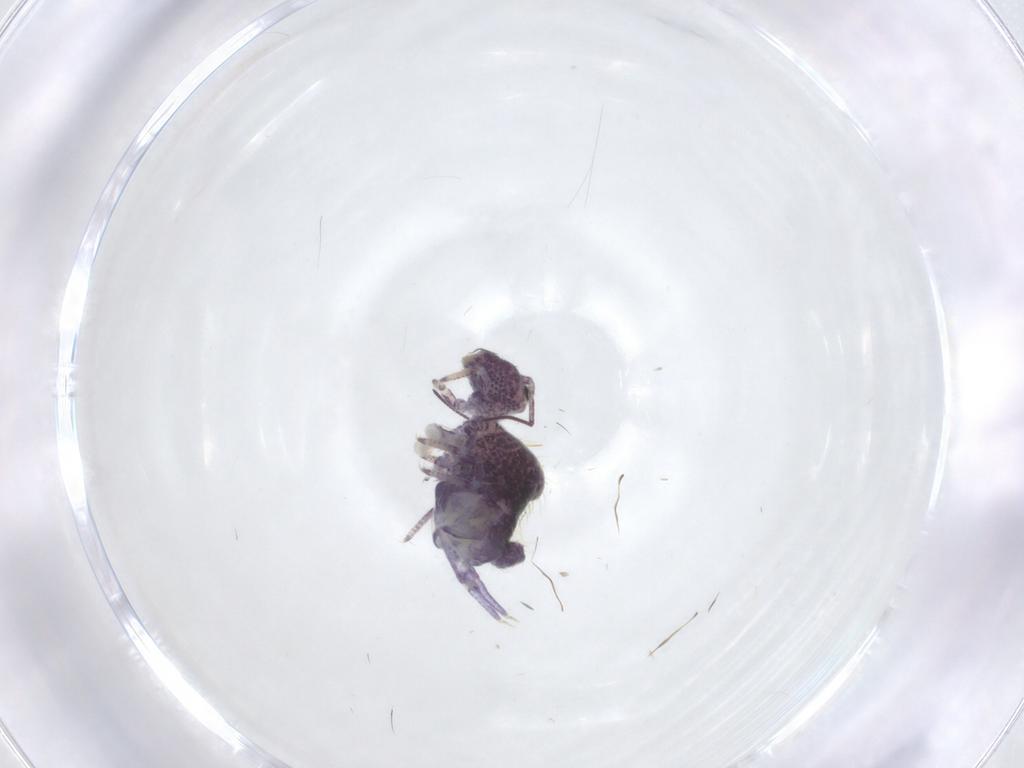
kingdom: Animalia
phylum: Arthropoda
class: Collembola
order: Symphypleona
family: Sminthuridae
